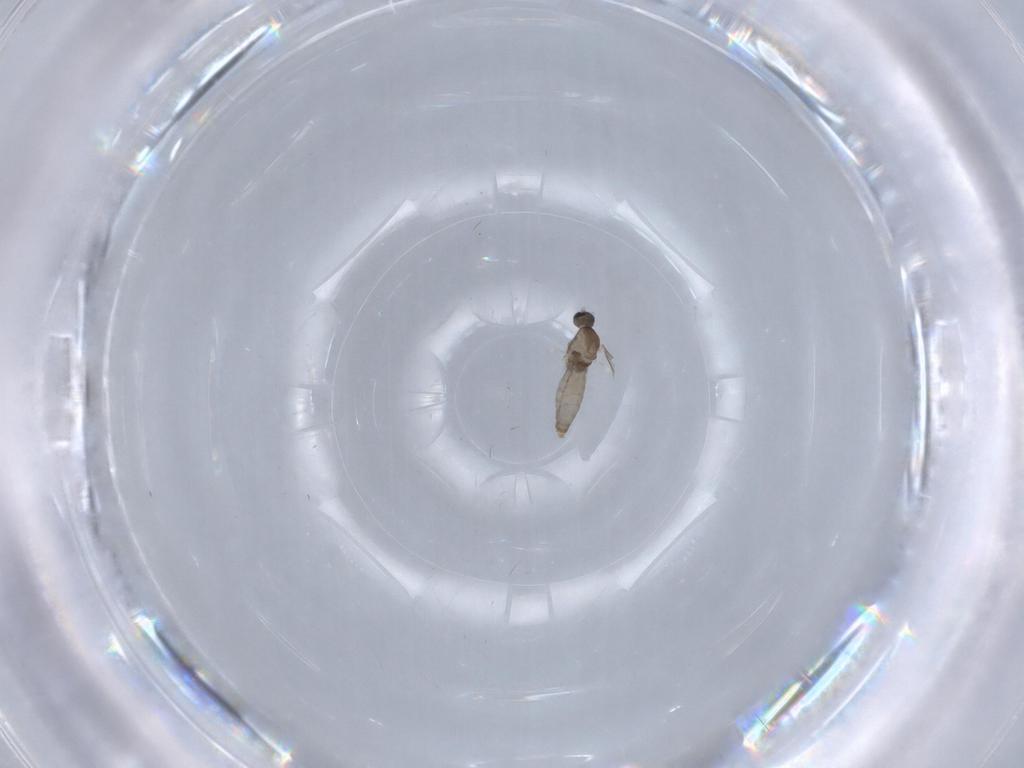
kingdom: Animalia
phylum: Arthropoda
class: Insecta
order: Diptera
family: Cecidomyiidae
